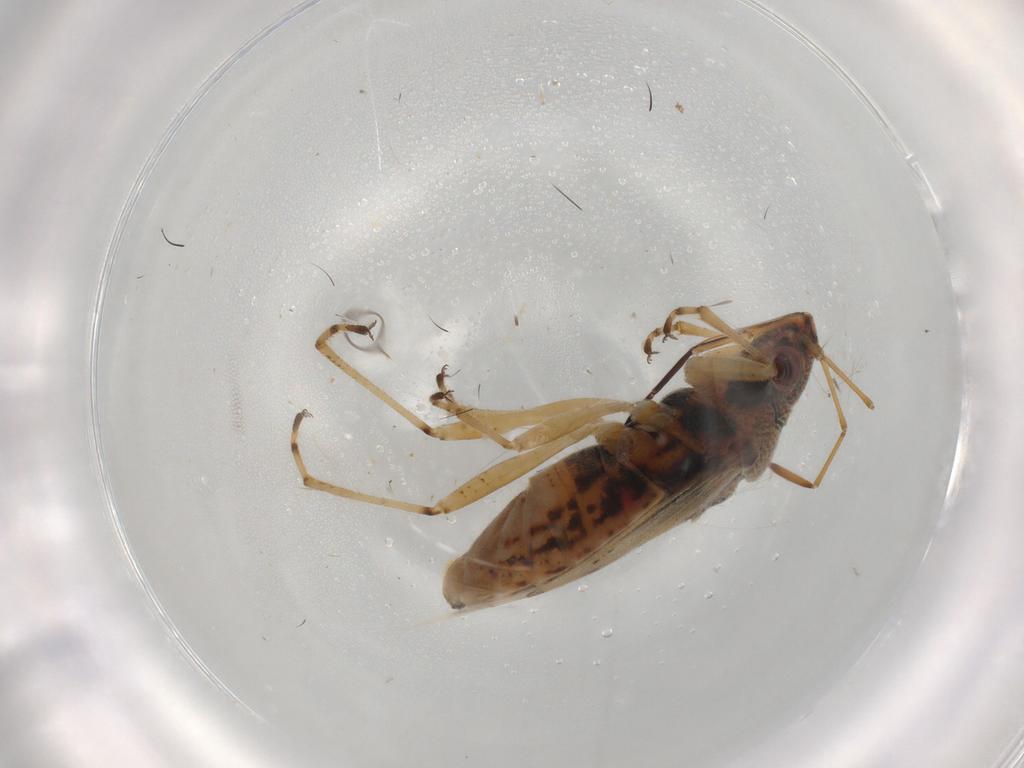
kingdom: Animalia
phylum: Arthropoda
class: Insecta
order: Hemiptera
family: Lygaeidae
